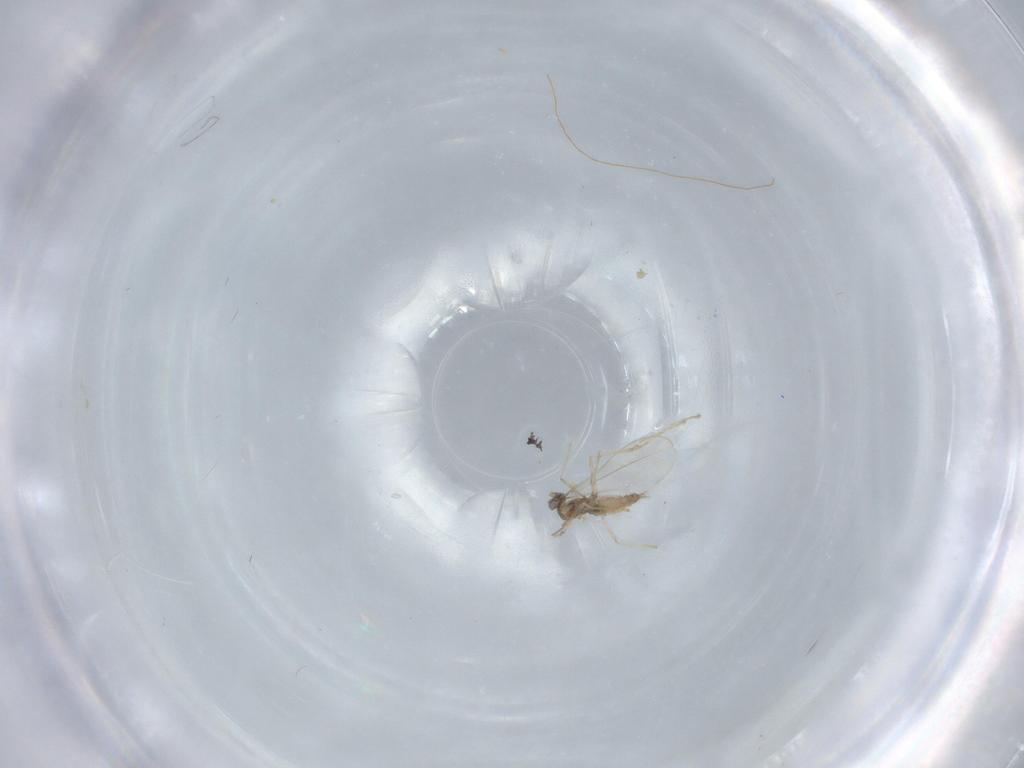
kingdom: Animalia
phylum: Arthropoda
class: Insecta
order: Diptera
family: Cecidomyiidae
